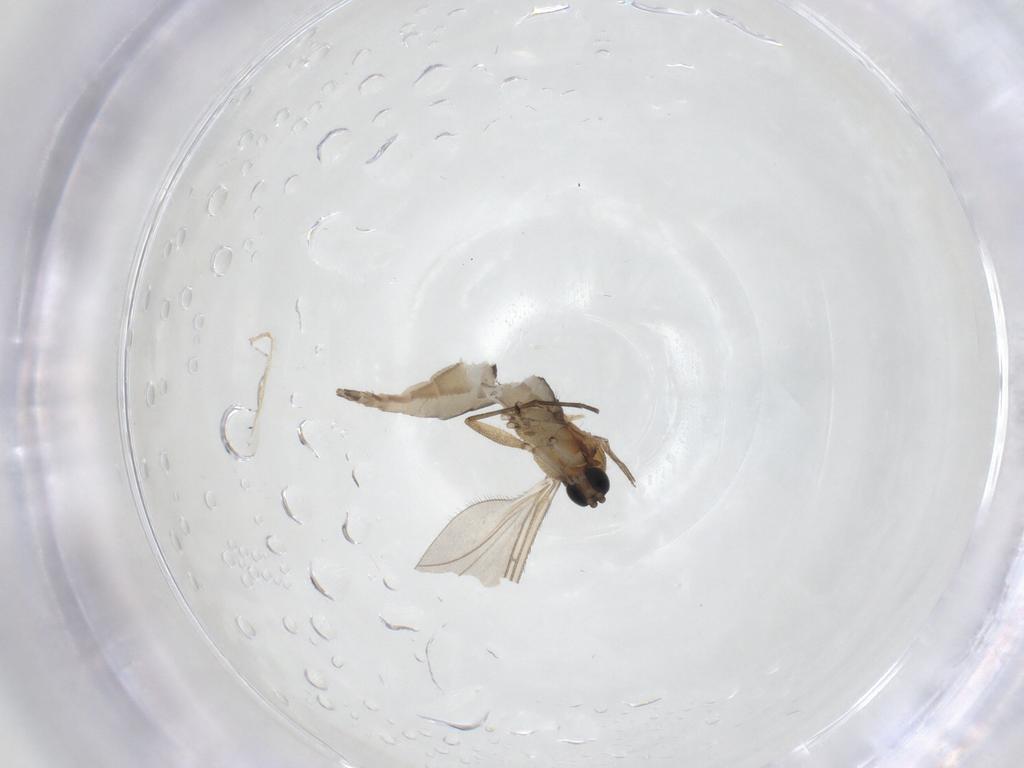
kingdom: Animalia
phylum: Arthropoda
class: Insecta
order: Diptera
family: Sciaridae
